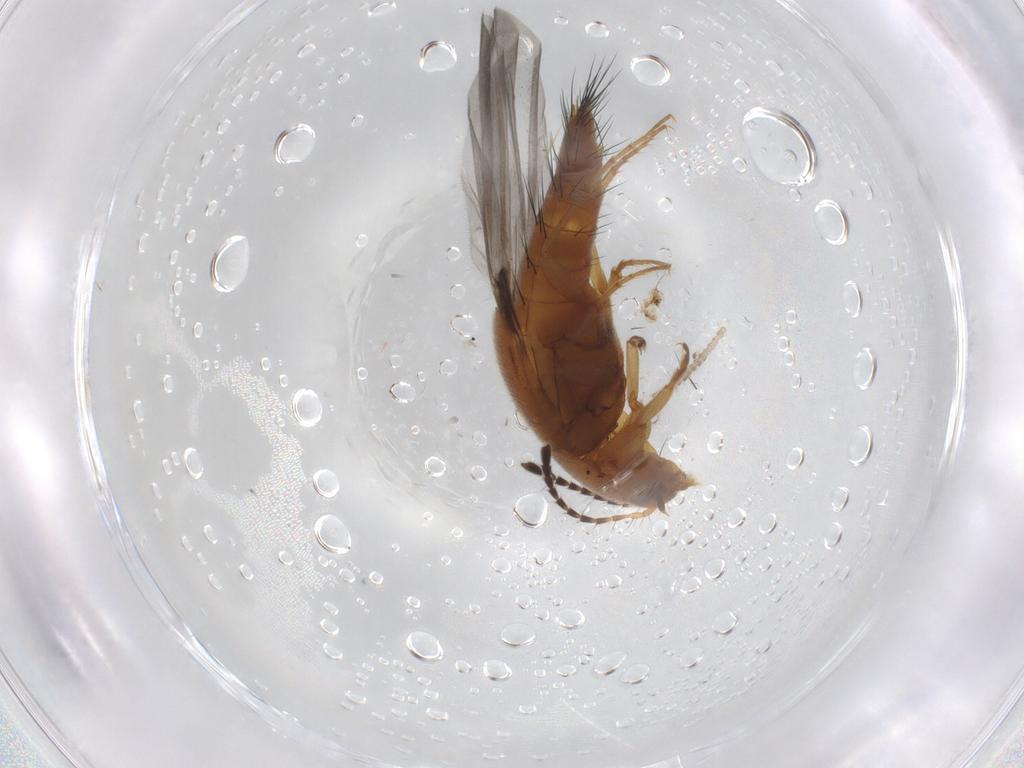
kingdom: Animalia
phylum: Arthropoda
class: Insecta
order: Coleoptera
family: Staphylinidae
